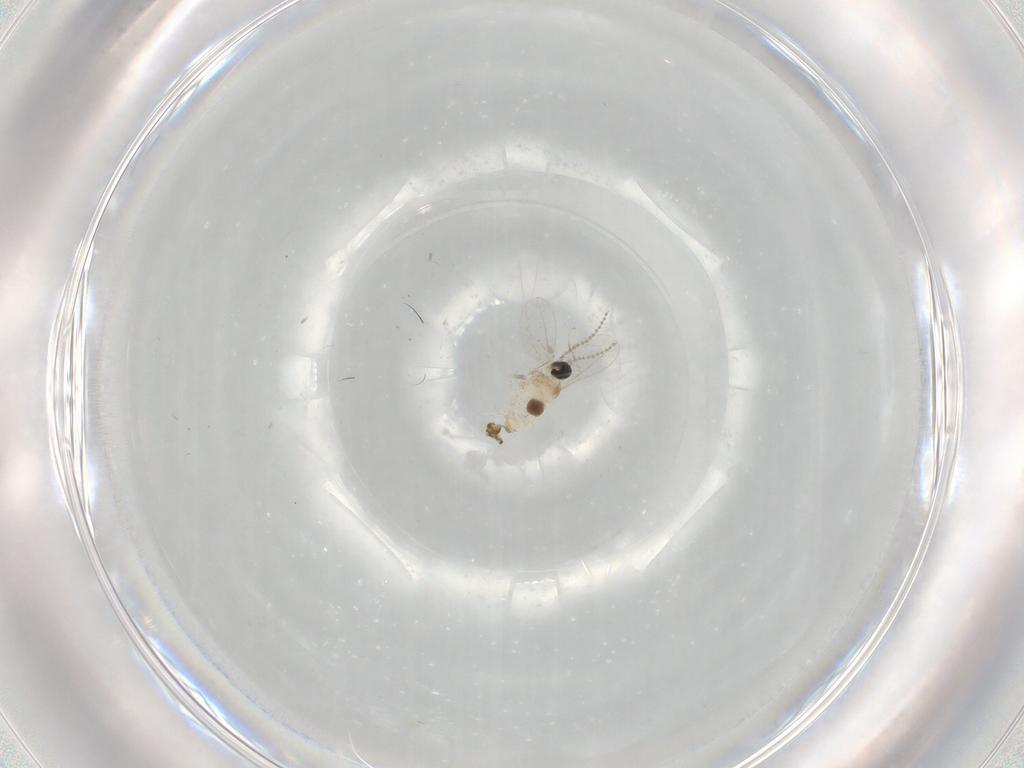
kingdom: Animalia
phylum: Arthropoda
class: Insecta
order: Diptera
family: Cecidomyiidae
